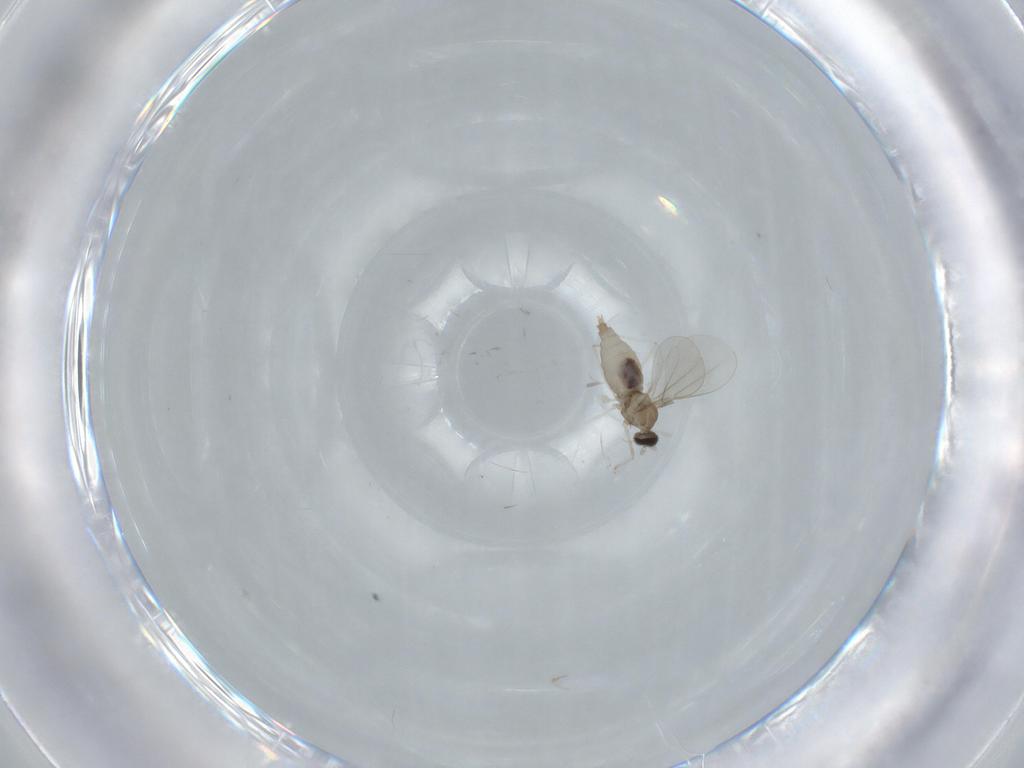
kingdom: Animalia
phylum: Arthropoda
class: Insecta
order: Diptera
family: Cecidomyiidae
